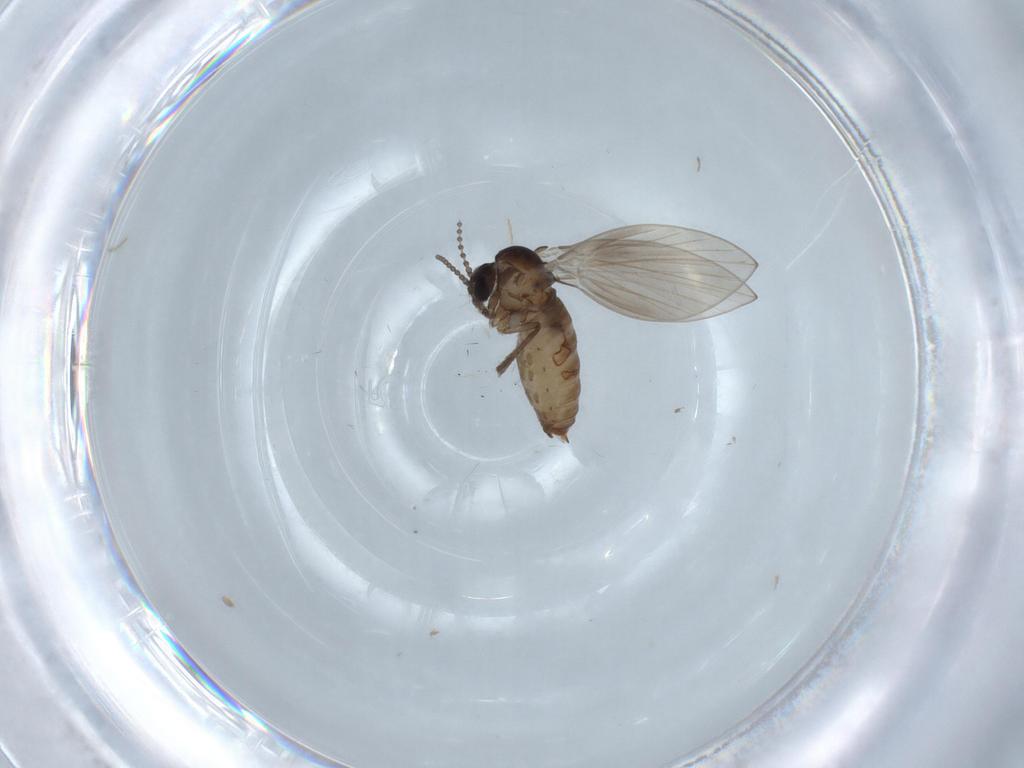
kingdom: Animalia
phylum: Arthropoda
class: Insecta
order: Diptera
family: Psychodidae
